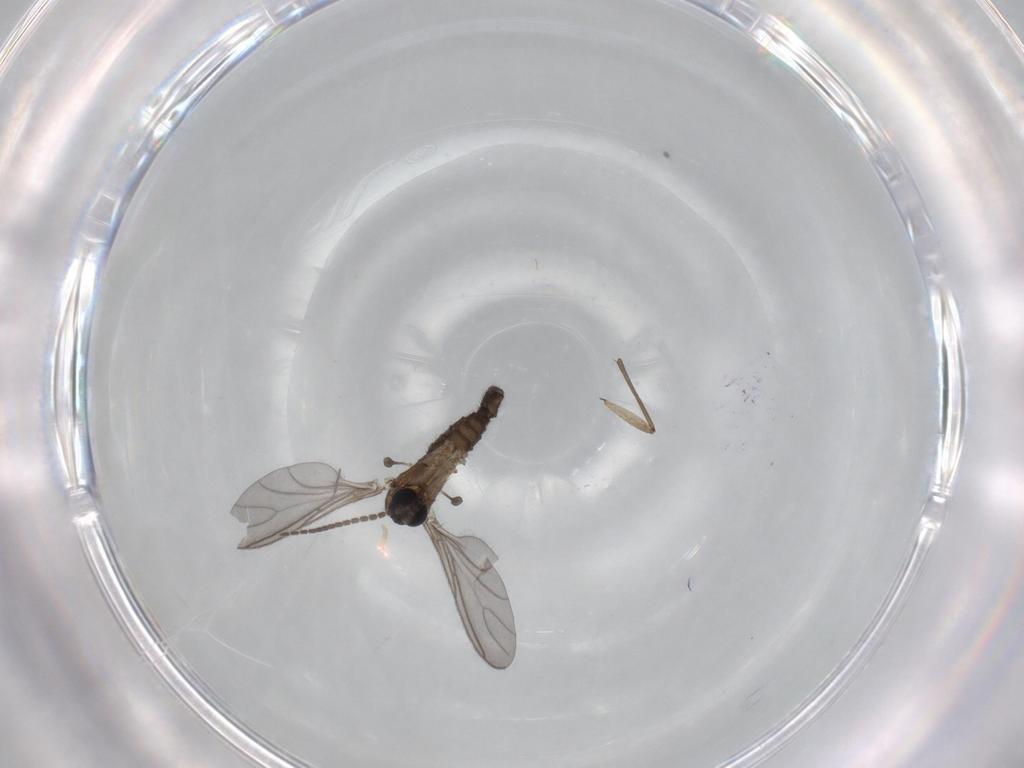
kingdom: Animalia
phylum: Arthropoda
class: Insecta
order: Diptera
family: Sciaridae
